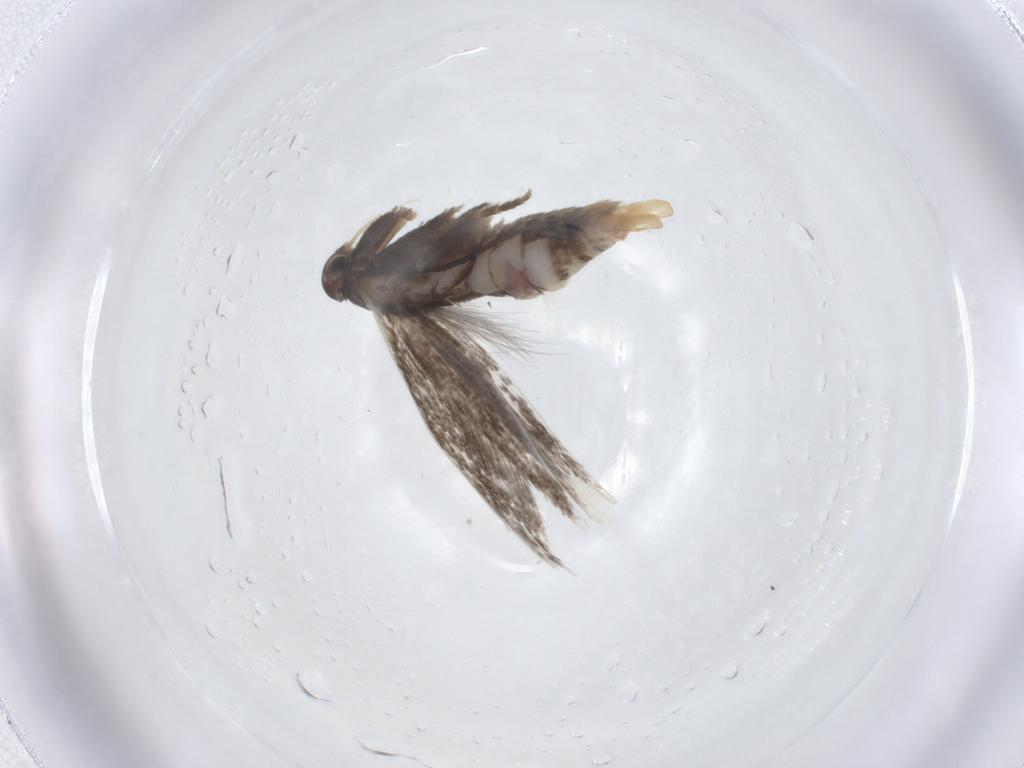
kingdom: Animalia
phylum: Arthropoda
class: Insecta
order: Lepidoptera
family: Elachistidae
